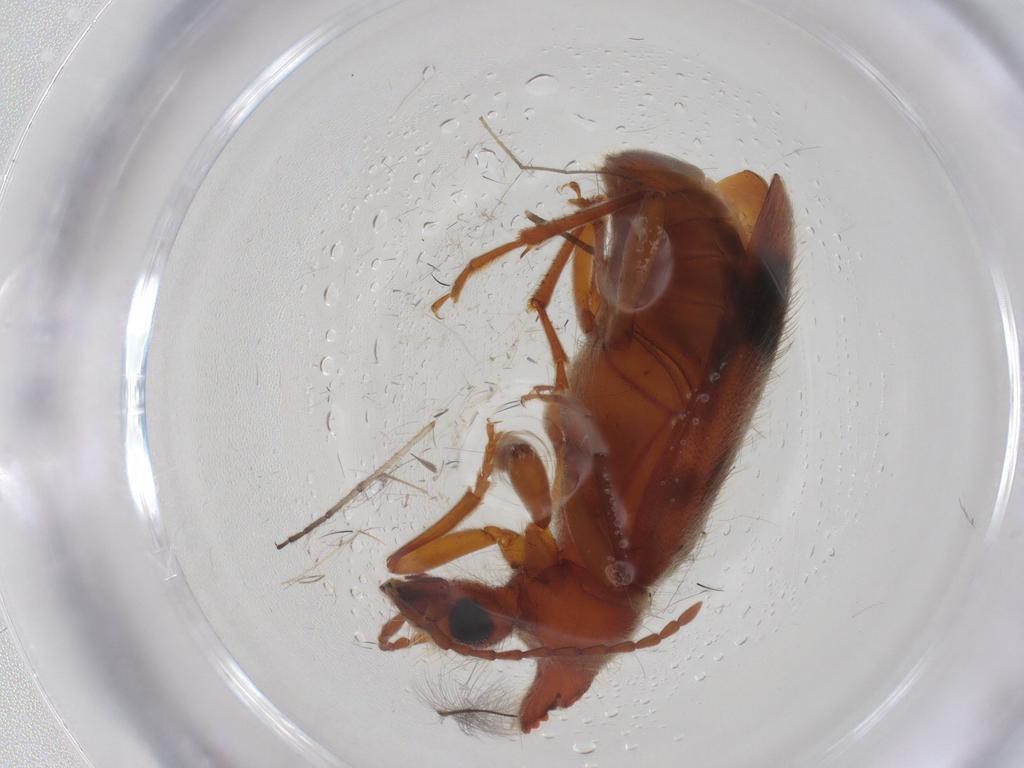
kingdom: Animalia
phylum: Arthropoda
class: Insecta
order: Coleoptera
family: Anthicidae
